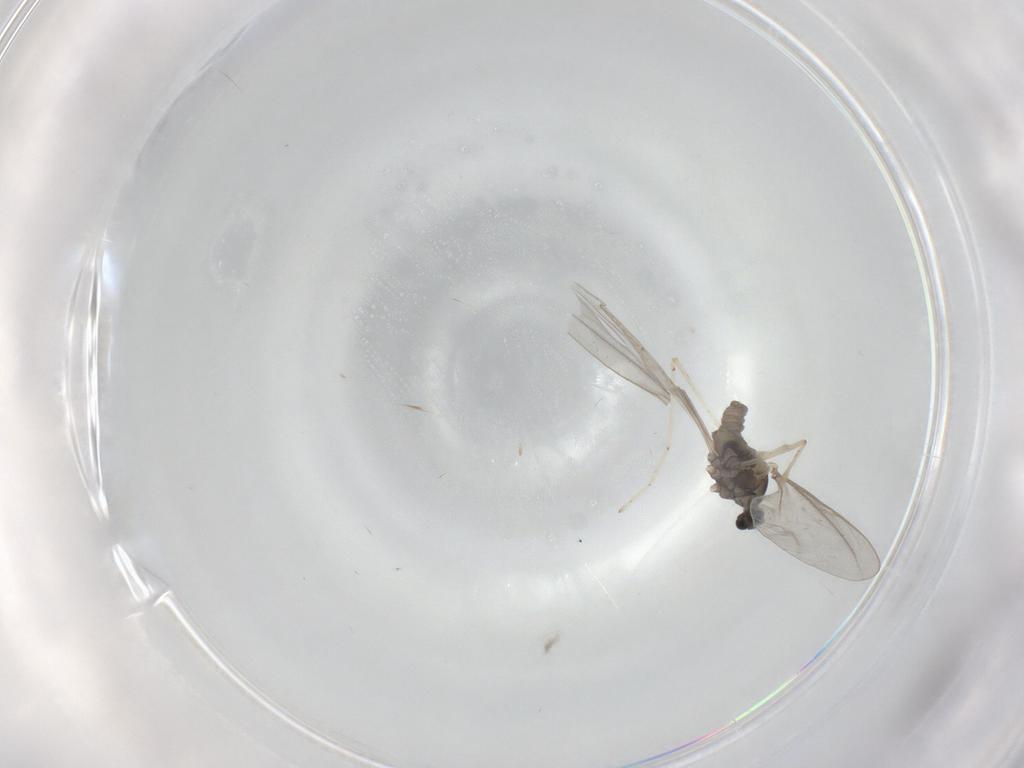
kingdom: Animalia
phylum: Arthropoda
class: Insecta
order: Diptera
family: Cecidomyiidae
